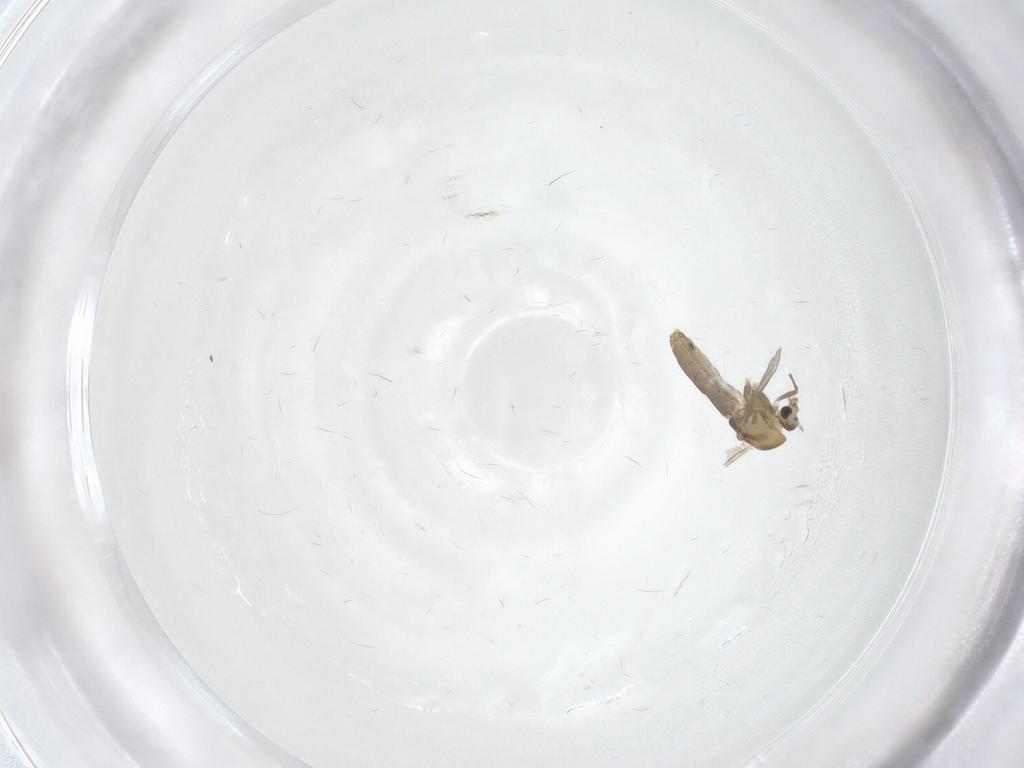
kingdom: Animalia
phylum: Arthropoda
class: Insecta
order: Diptera
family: Chironomidae
